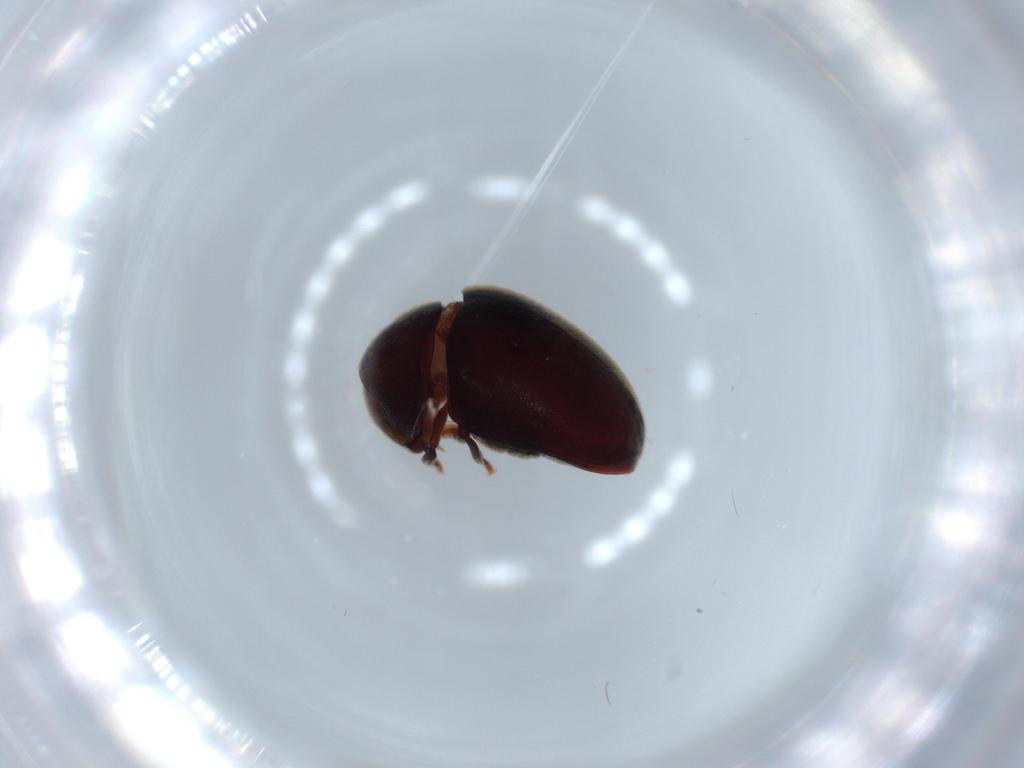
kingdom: Animalia
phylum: Arthropoda
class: Insecta
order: Coleoptera
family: Ptinidae
